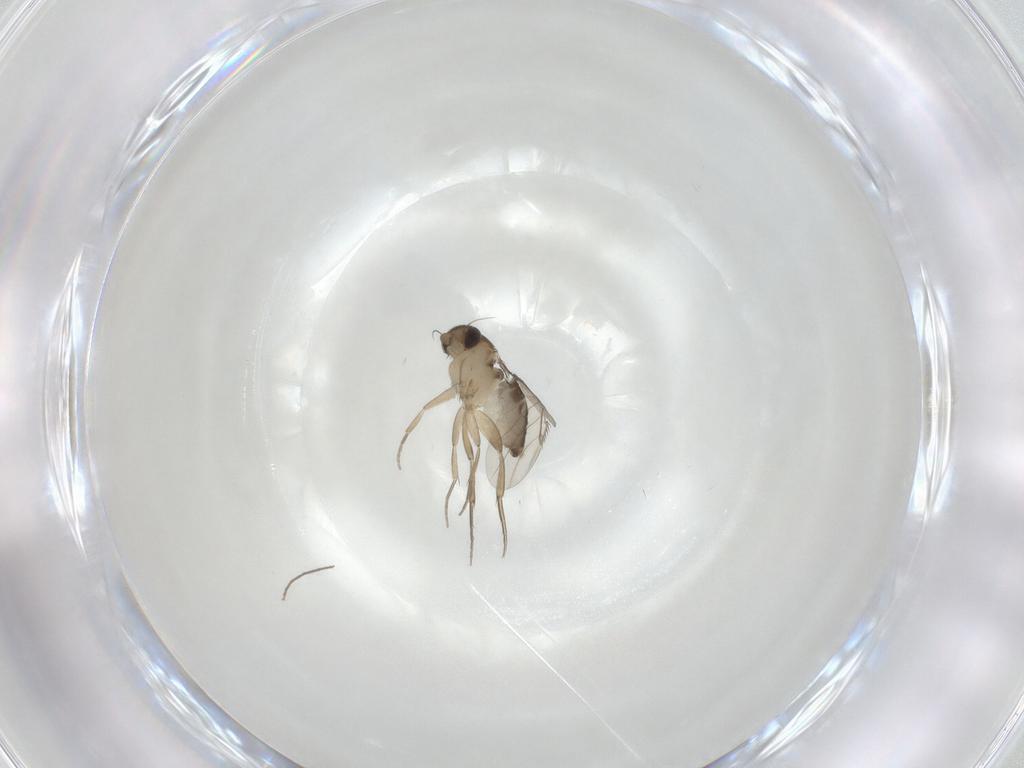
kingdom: Animalia
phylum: Arthropoda
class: Insecta
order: Diptera
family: Phoridae
